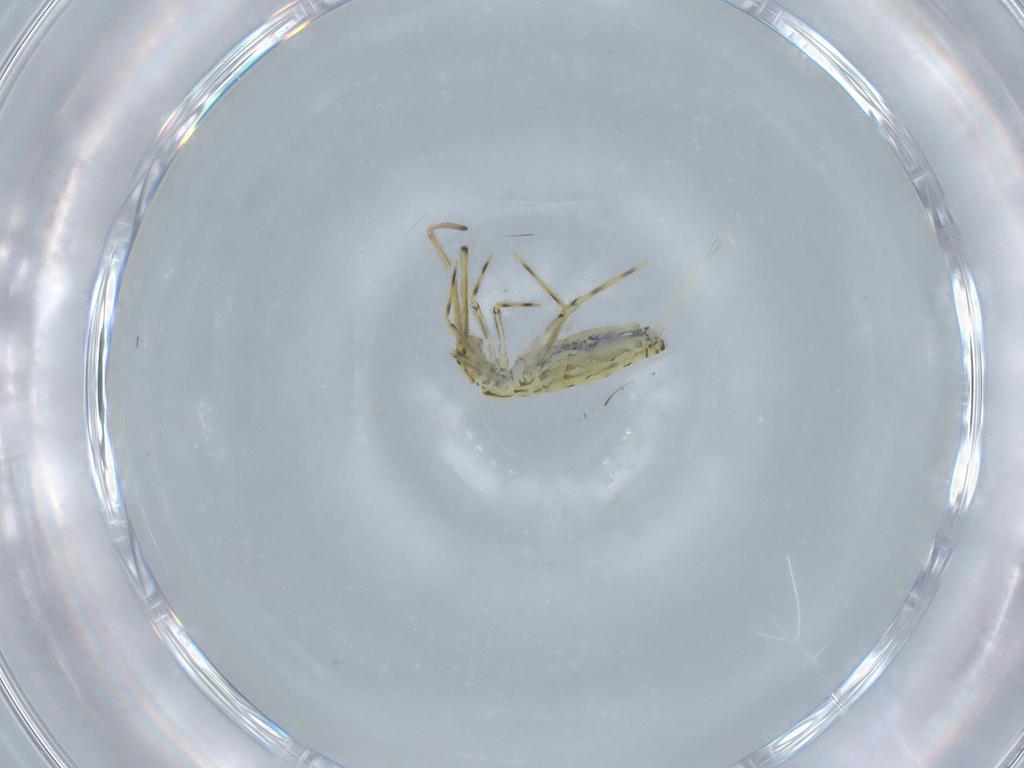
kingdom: Animalia
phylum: Arthropoda
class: Collembola
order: Entomobryomorpha
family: Paronellidae
